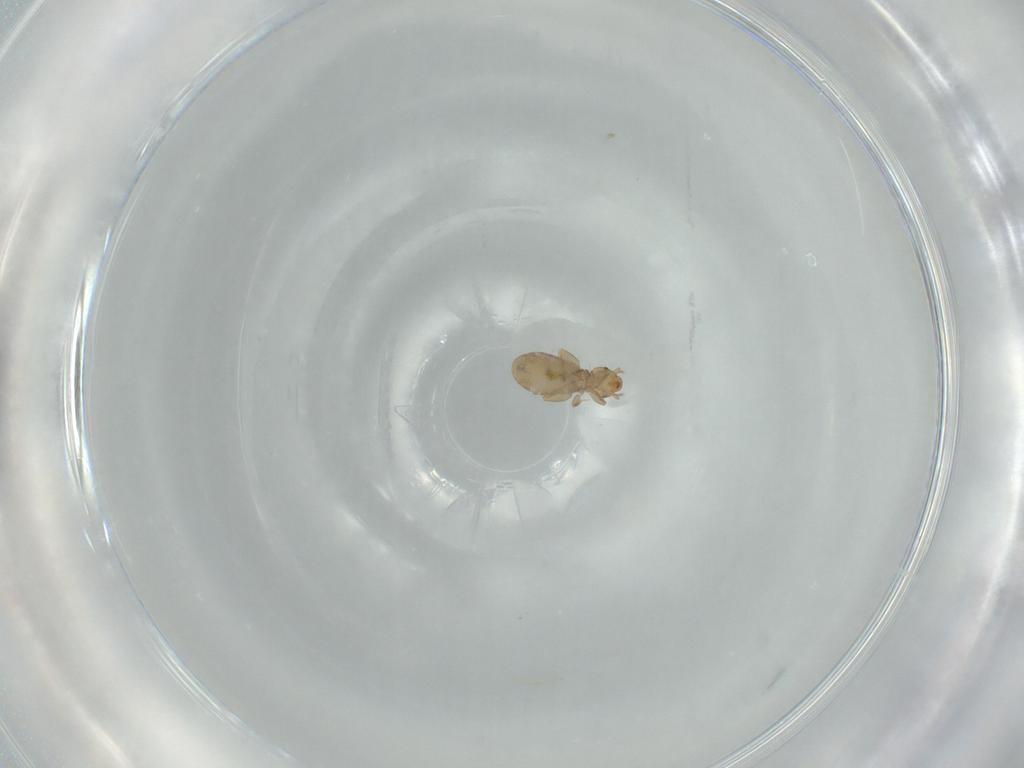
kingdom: Animalia
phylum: Arthropoda
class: Insecta
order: Psocodea
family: Liposcelididae
